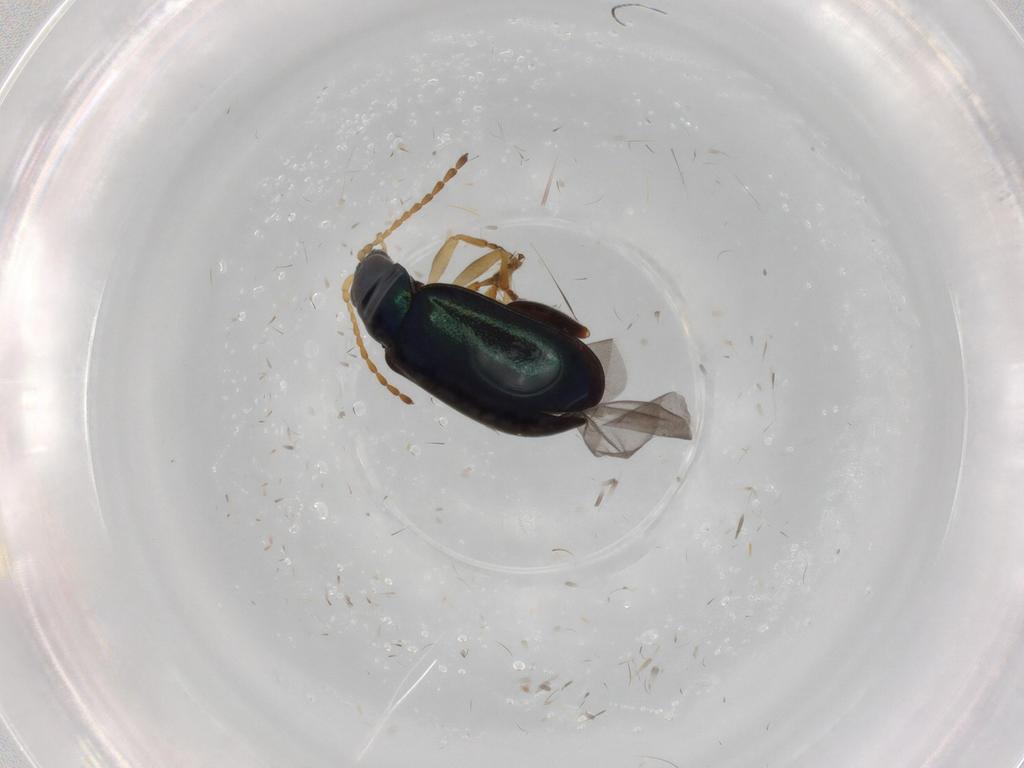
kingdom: Animalia
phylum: Arthropoda
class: Insecta
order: Coleoptera
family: Chrysomelidae
